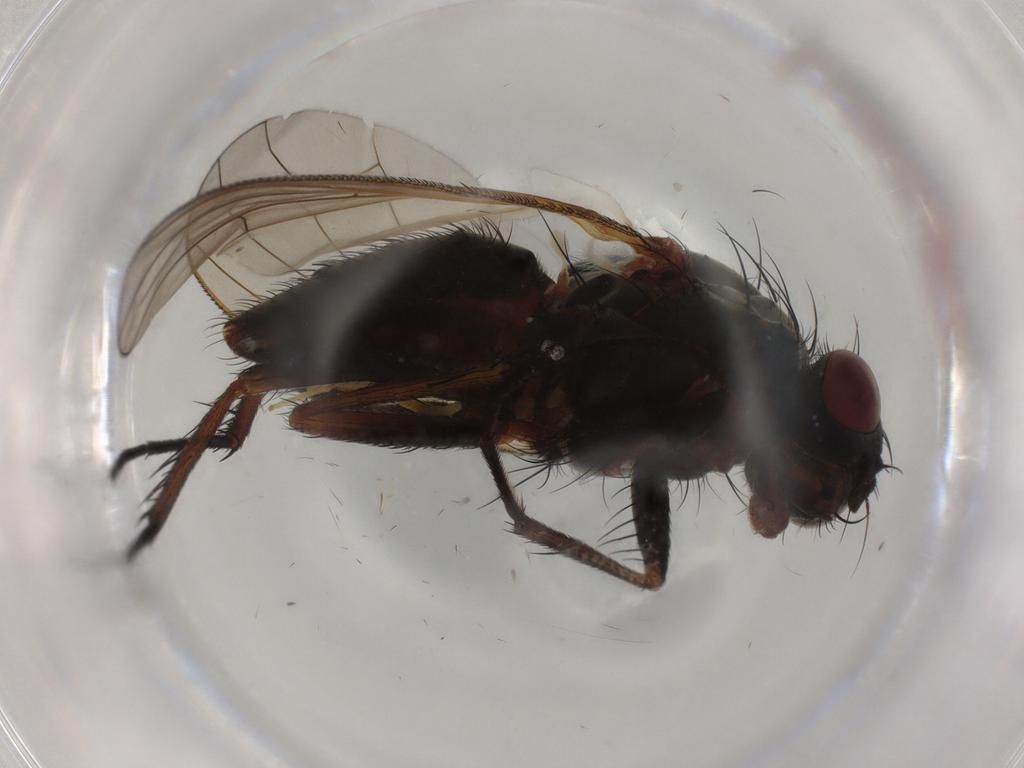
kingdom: Animalia
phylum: Arthropoda
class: Insecta
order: Diptera
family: Anthomyiidae
